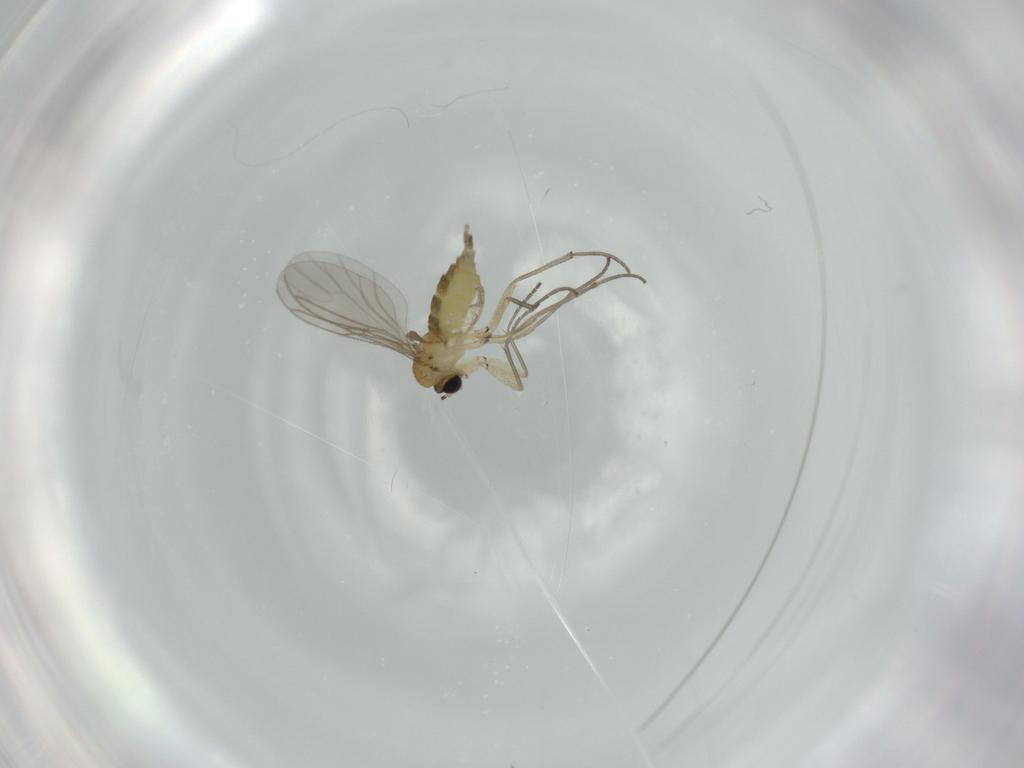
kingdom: Animalia
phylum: Arthropoda
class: Insecta
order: Diptera
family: Sciaridae
